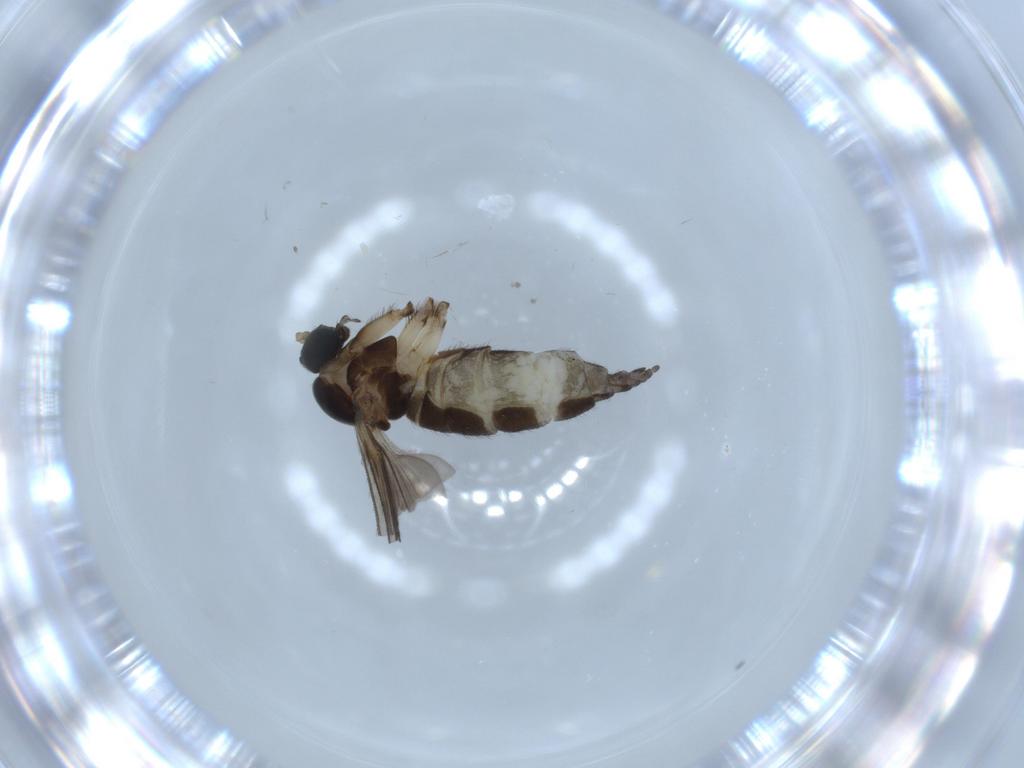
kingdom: Animalia
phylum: Arthropoda
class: Insecta
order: Diptera
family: Sciaridae
